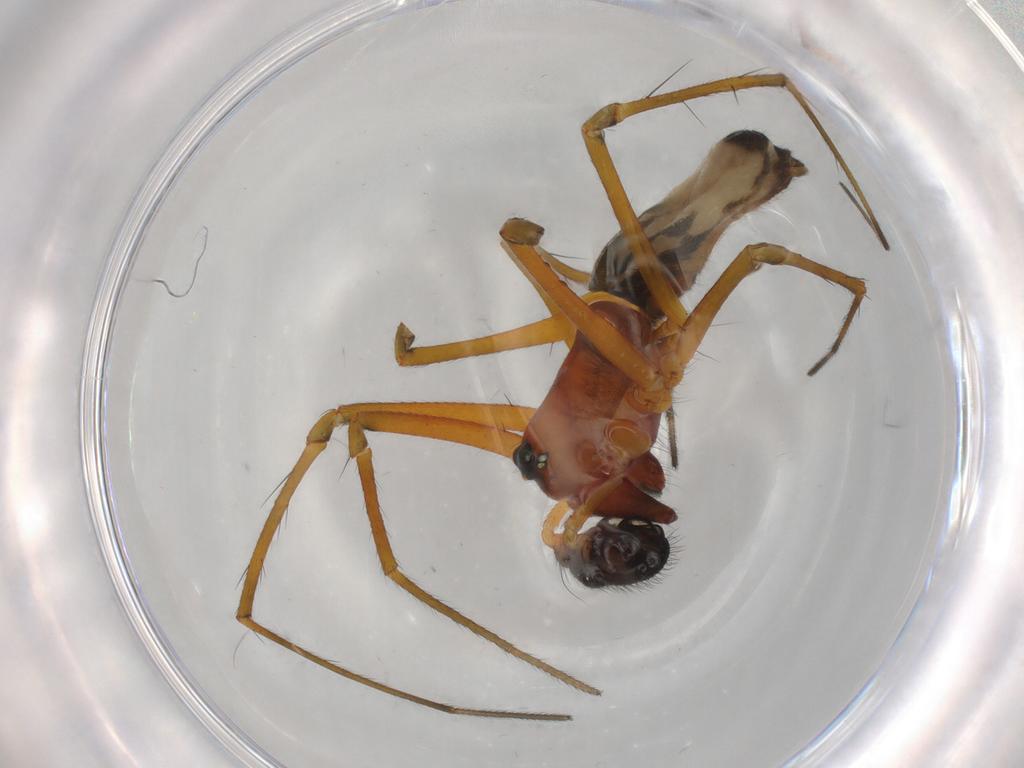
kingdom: Animalia
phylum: Arthropoda
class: Arachnida
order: Araneae
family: Linyphiidae
